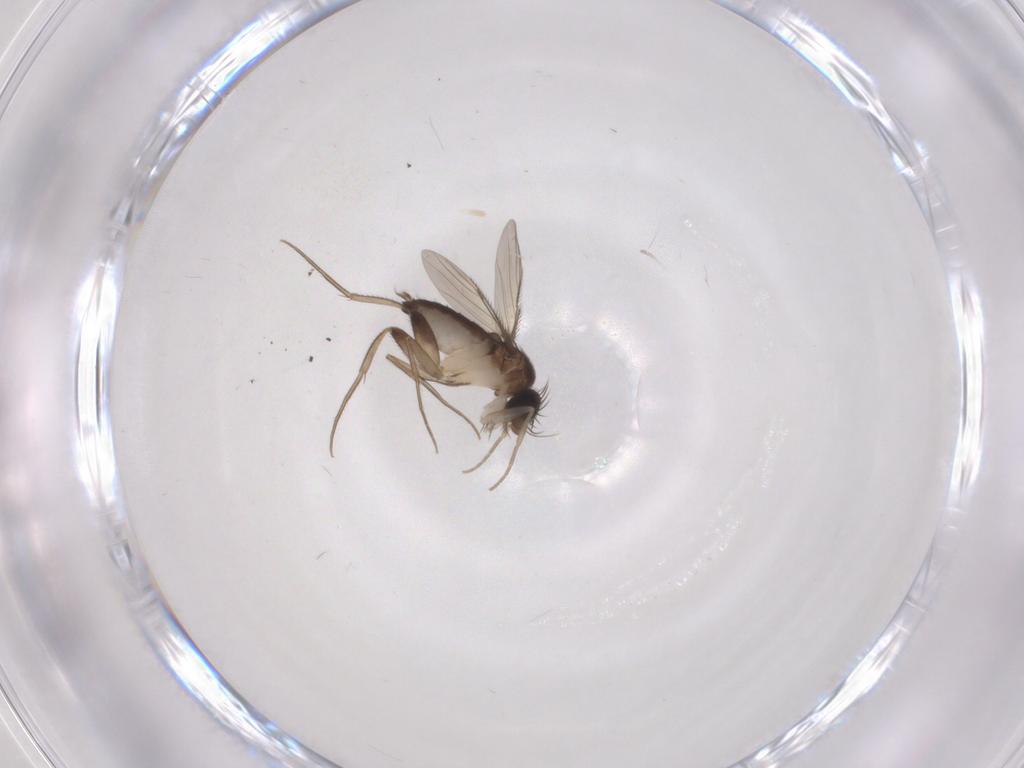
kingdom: Animalia
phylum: Arthropoda
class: Insecta
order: Diptera
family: Phoridae
